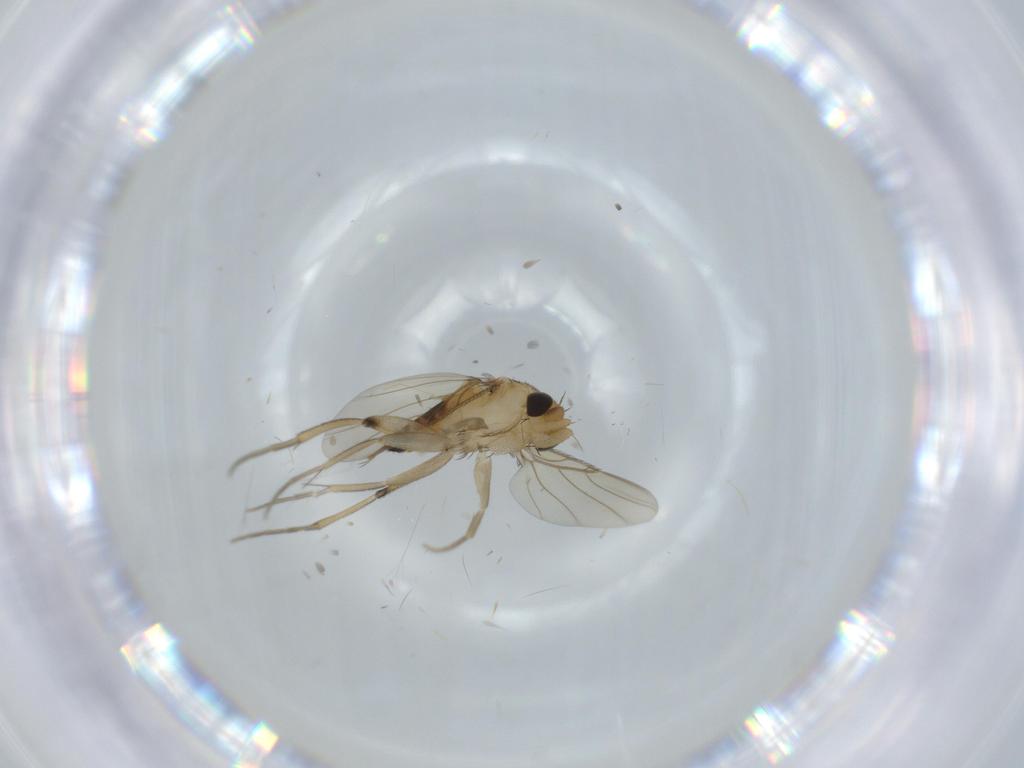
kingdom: Animalia
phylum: Arthropoda
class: Insecta
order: Diptera
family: Phoridae
